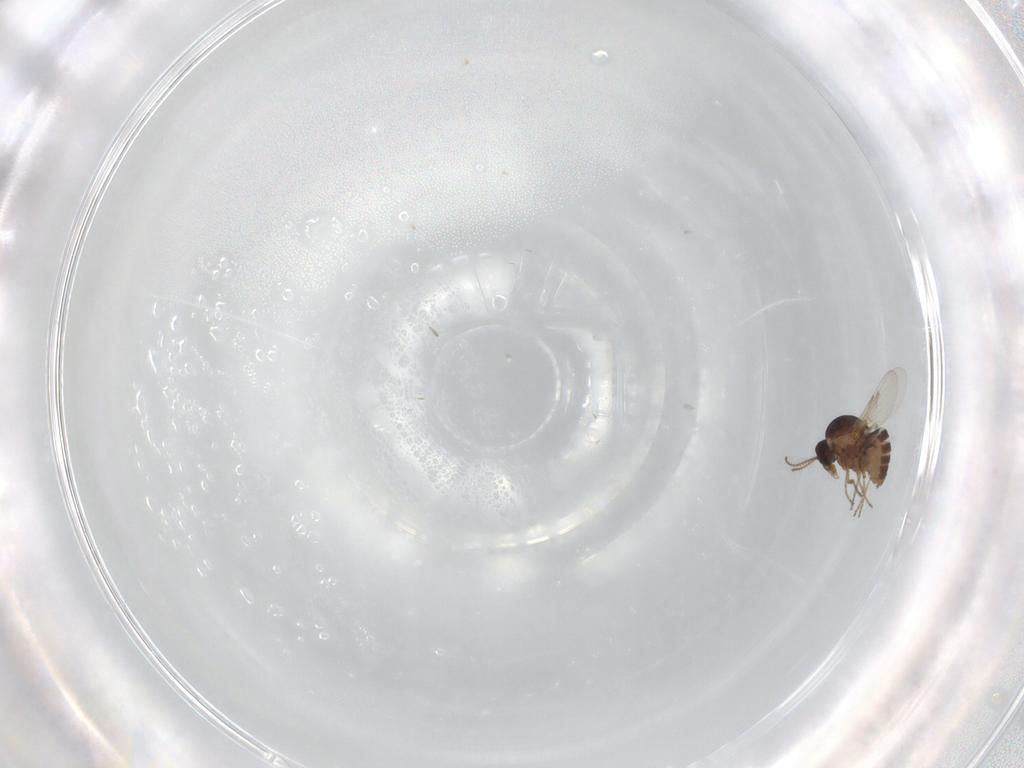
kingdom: Animalia
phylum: Arthropoda
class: Insecta
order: Diptera
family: Ceratopogonidae
